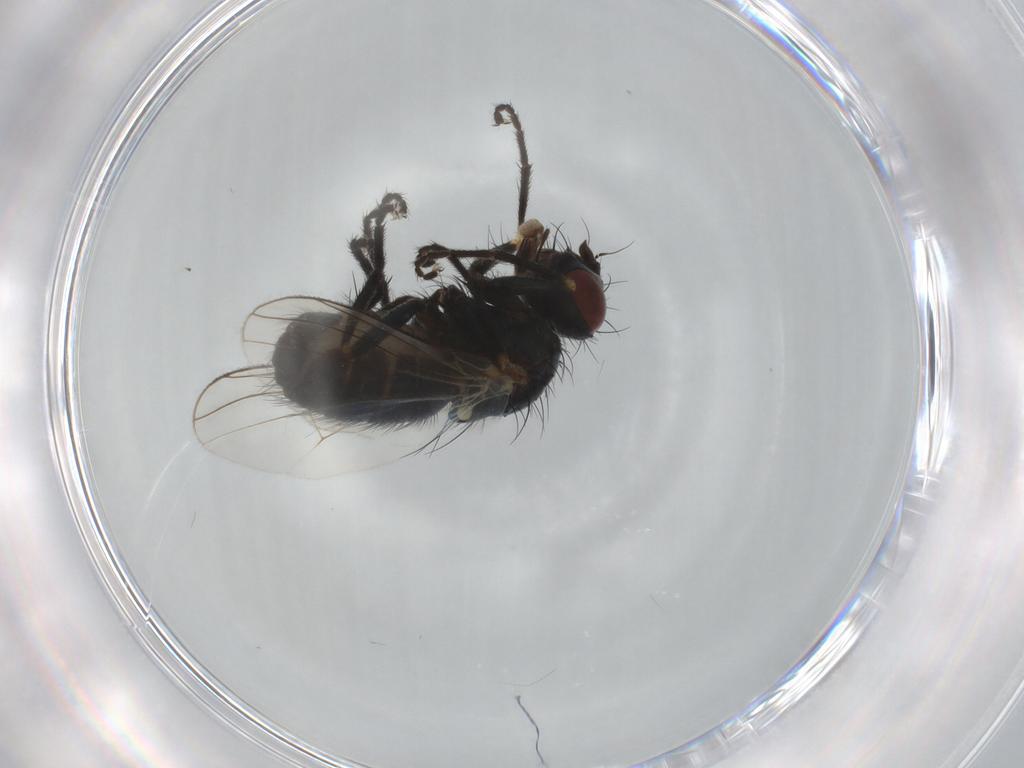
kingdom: Animalia
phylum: Arthropoda
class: Insecta
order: Diptera
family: Muscidae
